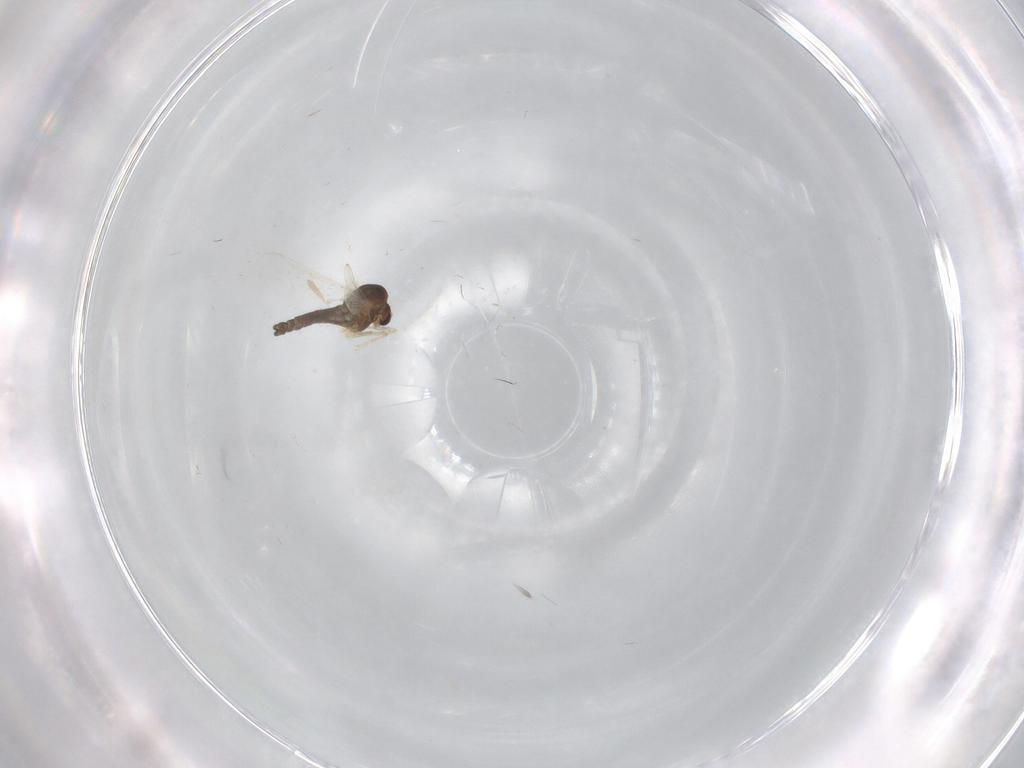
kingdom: Animalia
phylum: Arthropoda
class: Insecta
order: Diptera
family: Chironomidae
